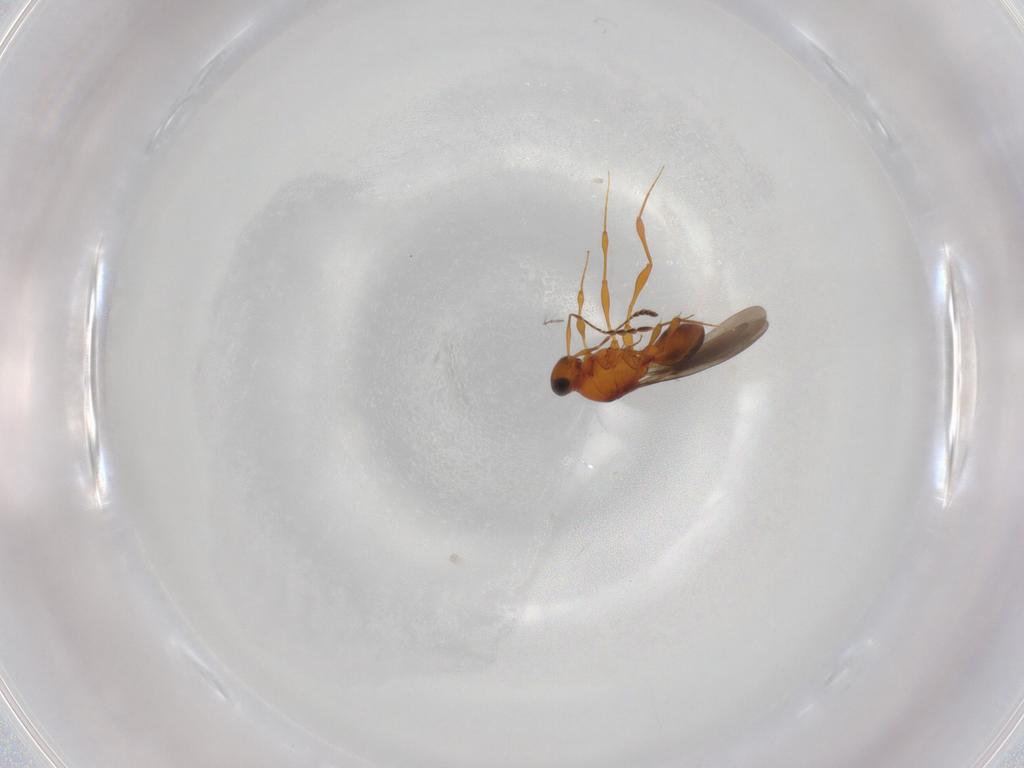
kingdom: Animalia
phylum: Arthropoda
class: Insecta
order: Hymenoptera
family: Platygastridae
